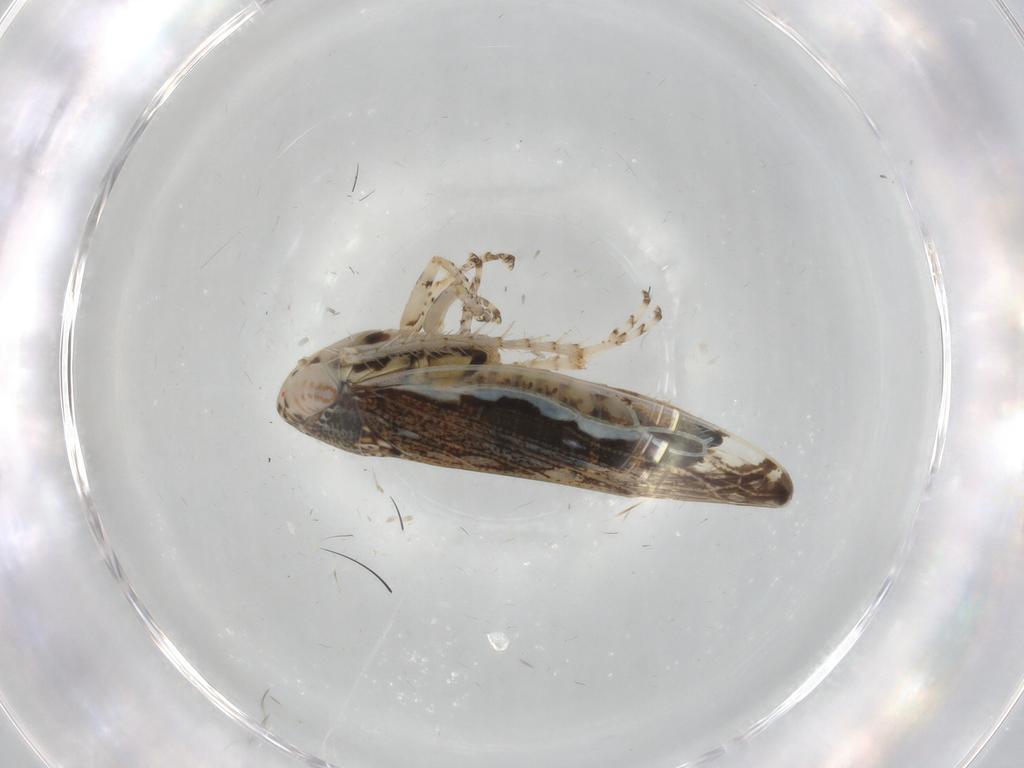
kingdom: Animalia
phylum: Arthropoda
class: Insecta
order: Hemiptera
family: Cicadellidae
